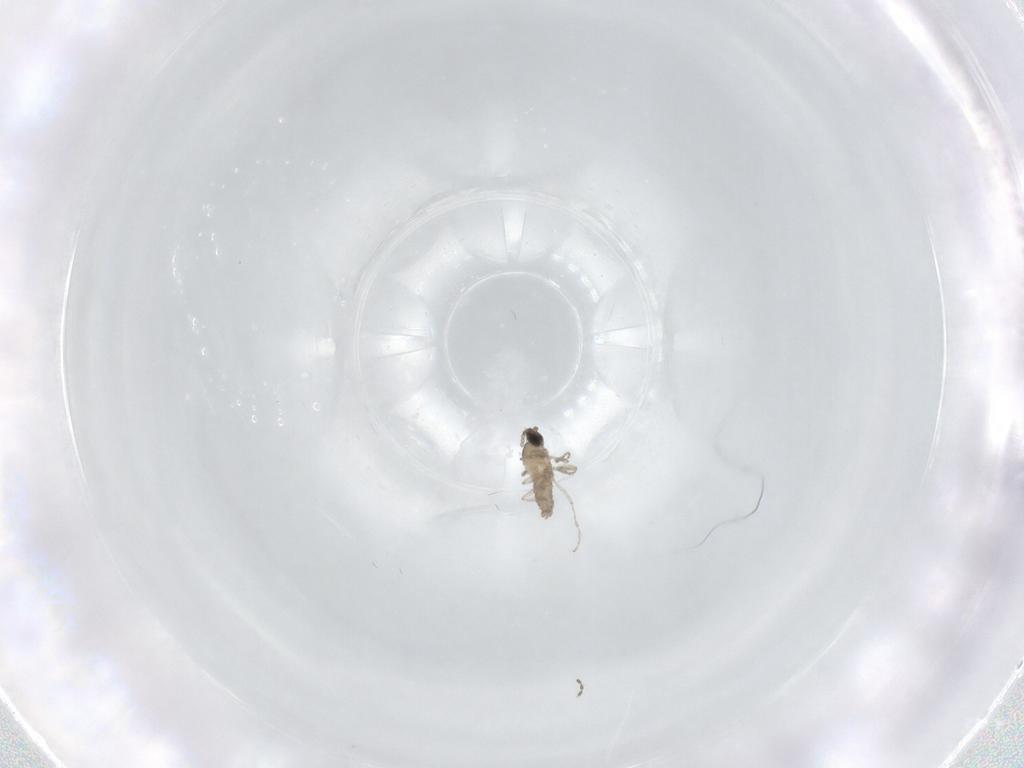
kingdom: Animalia
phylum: Arthropoda
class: Insecta
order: Diptera
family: Cecidomyiidae
